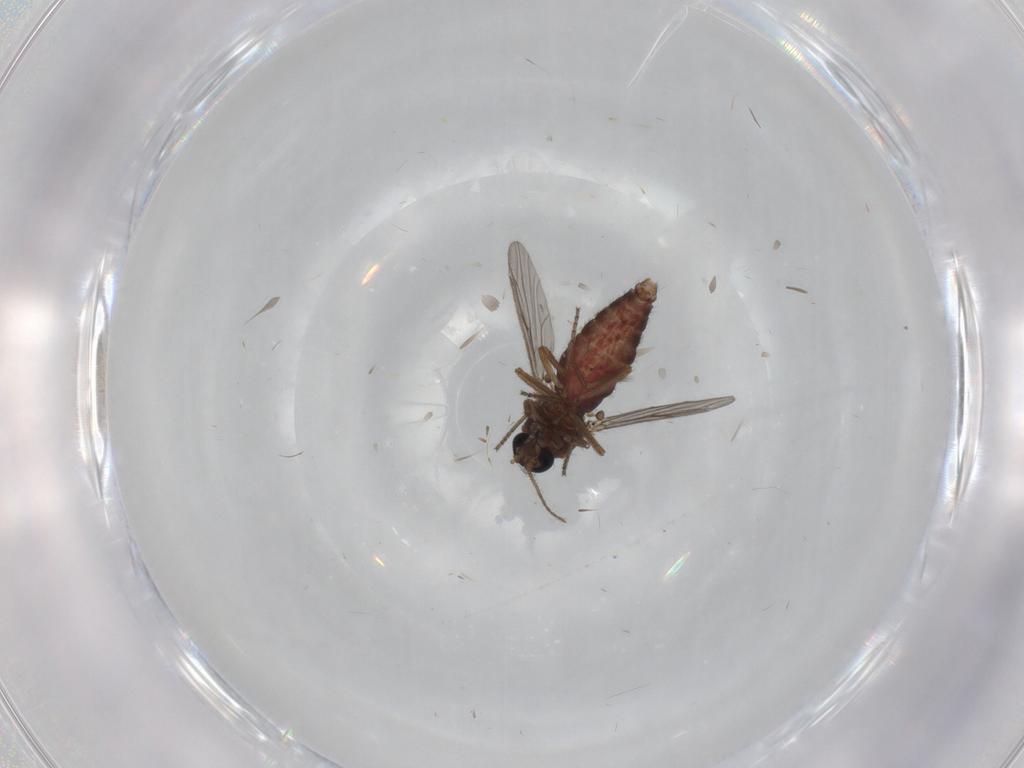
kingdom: Animalia
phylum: Arthropoda
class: Insecta
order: Diptera
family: Ceratopogonidae
